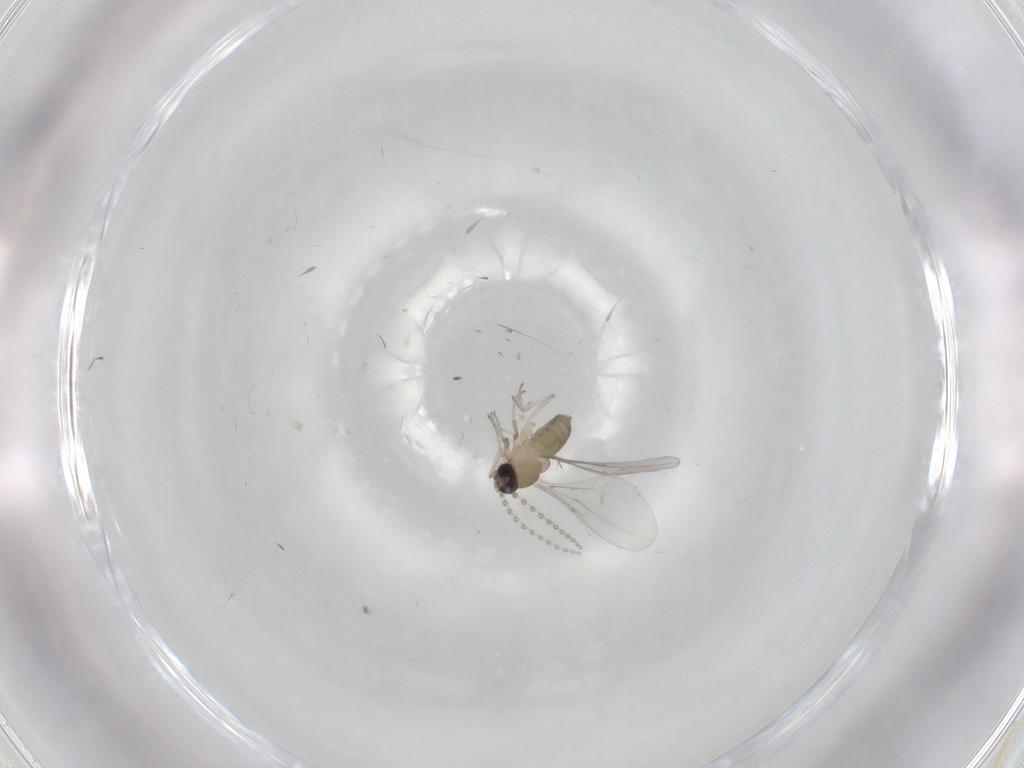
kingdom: Animalia
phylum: Arthropoda
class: Insecta
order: Diptera
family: Cecidomyiidae
